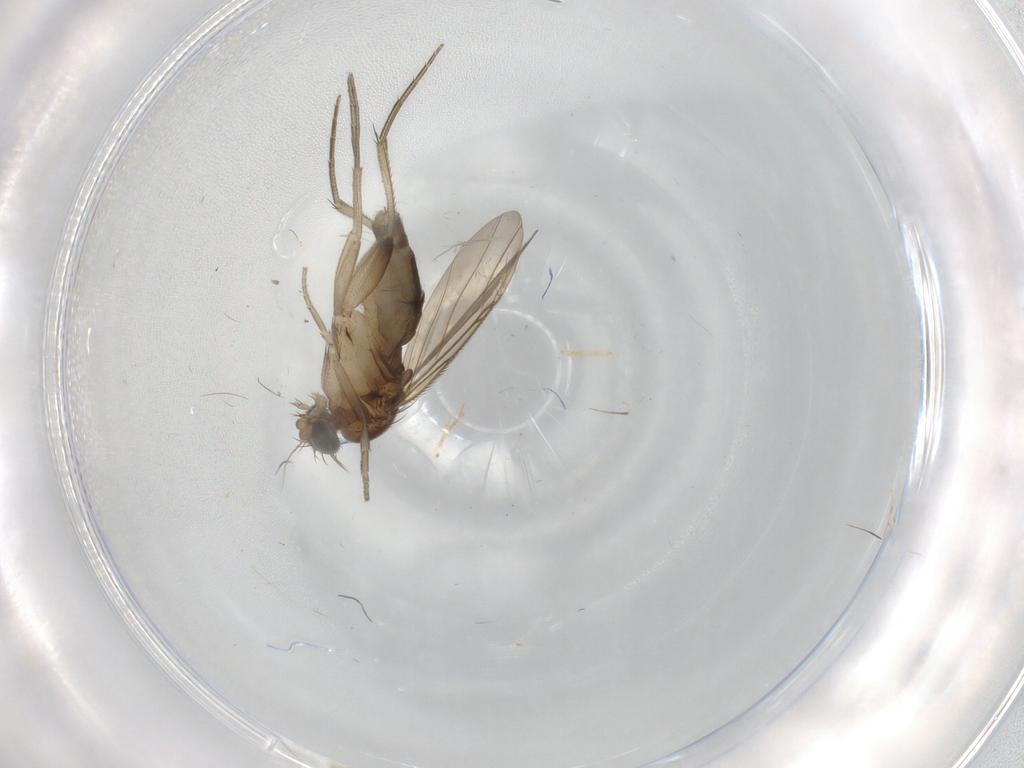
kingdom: Animalia
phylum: Arthropoda
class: Insecta
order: Diptera
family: Phoridae
